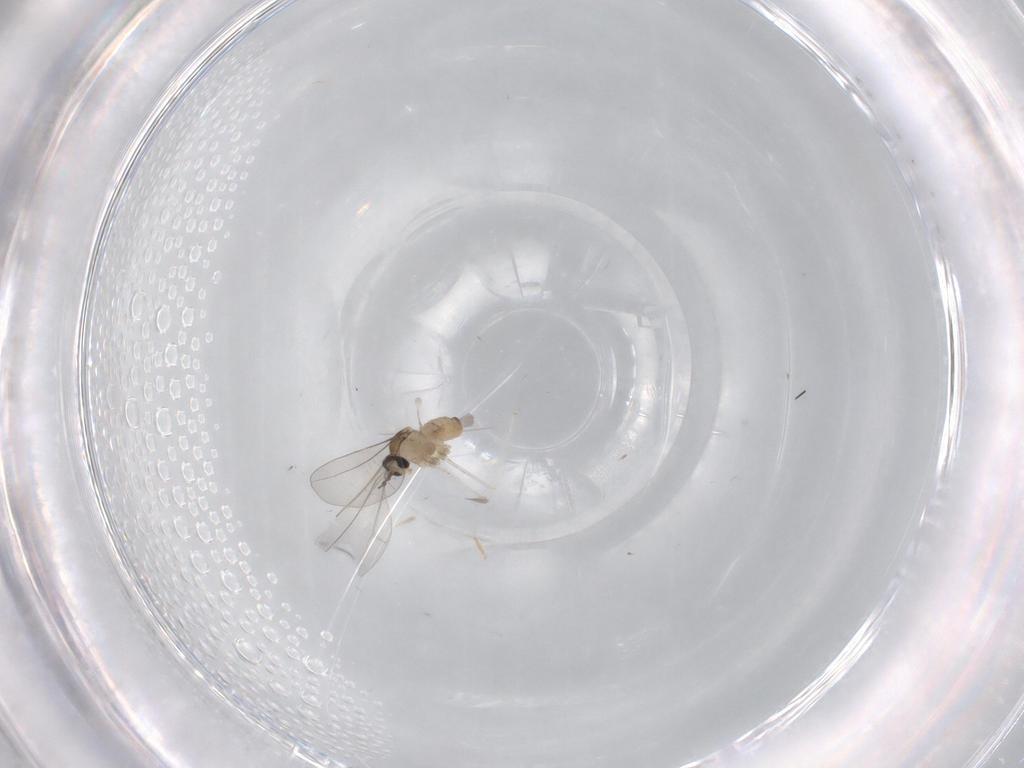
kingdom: Animalia
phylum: Arthropoda
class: Insecta
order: Diptera
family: Cecidomyiidae
